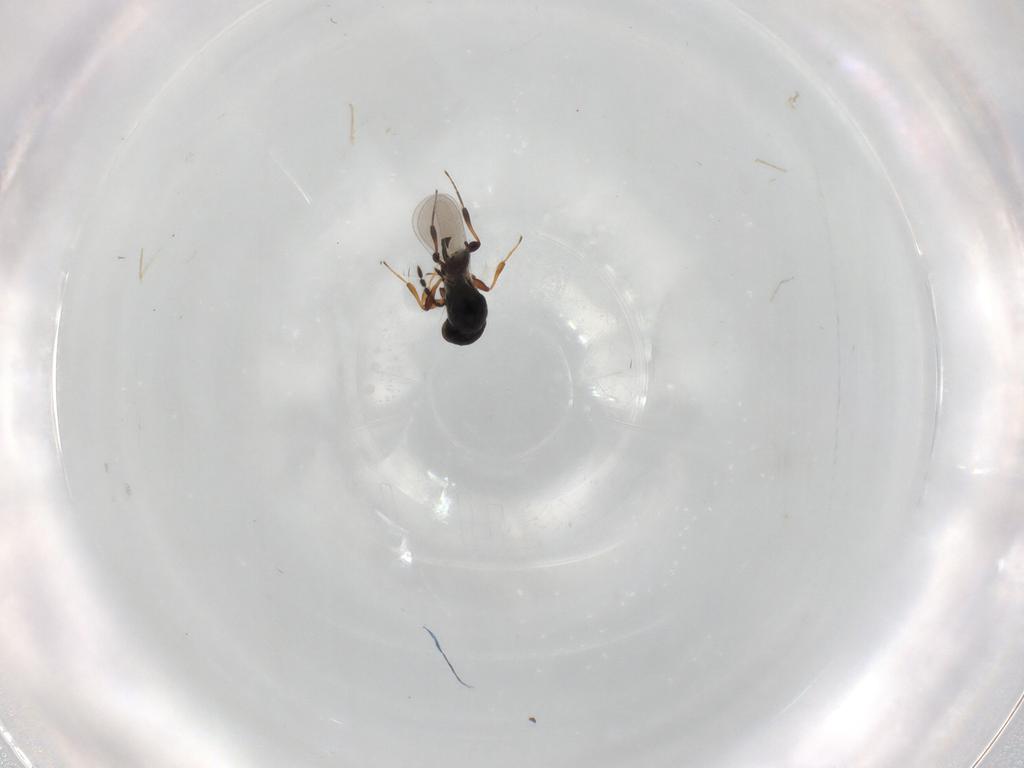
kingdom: Animalia
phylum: Arthropoda
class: Insecta
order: Hymenoptera
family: Platygastridae
